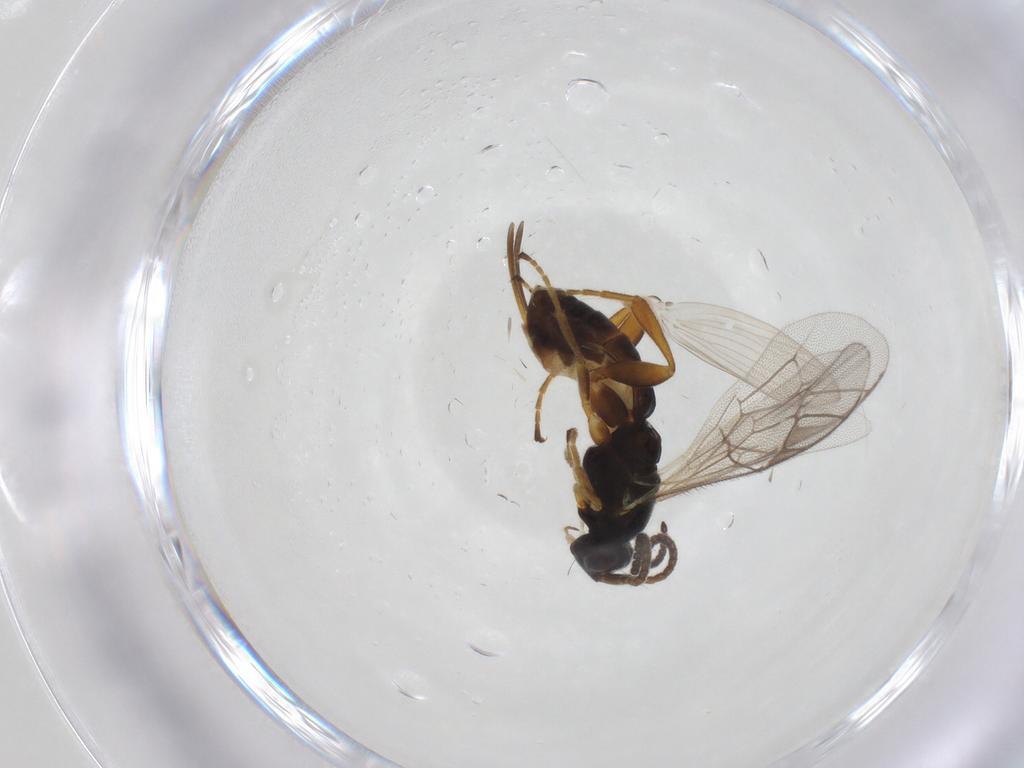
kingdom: Animalia
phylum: Arthropoda
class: Insecta
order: Hymenoptera
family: Ichneumonidae
